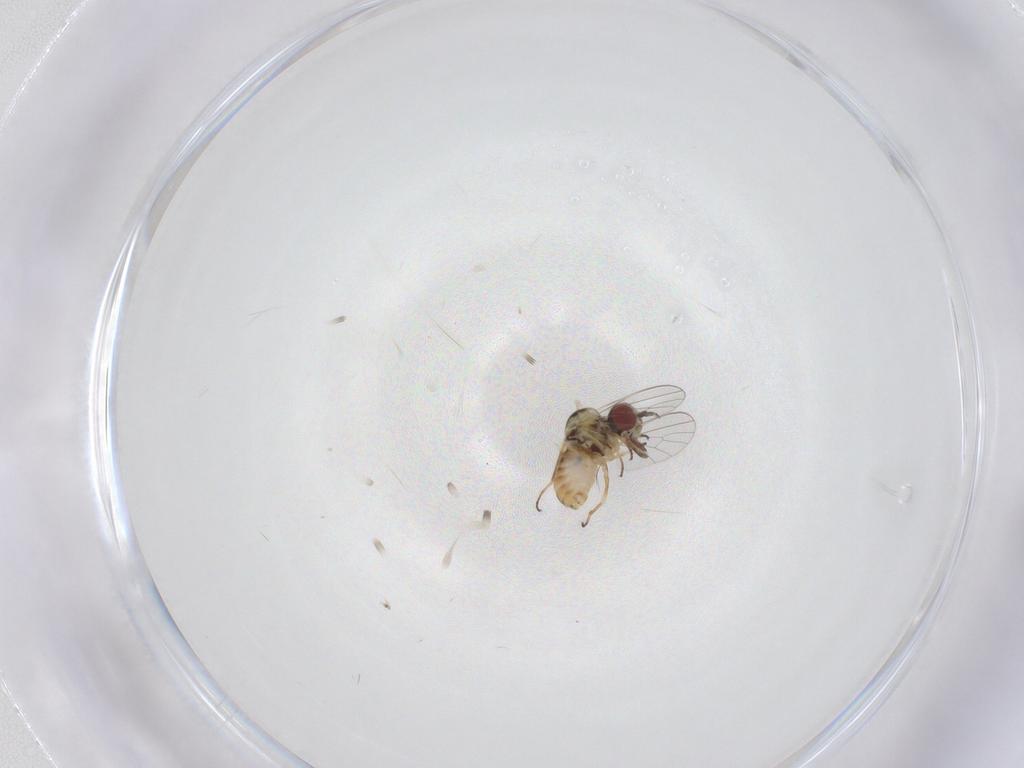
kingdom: Animalia
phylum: Arthropoda
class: Insecta
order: Diptera
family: Bombyliidae
